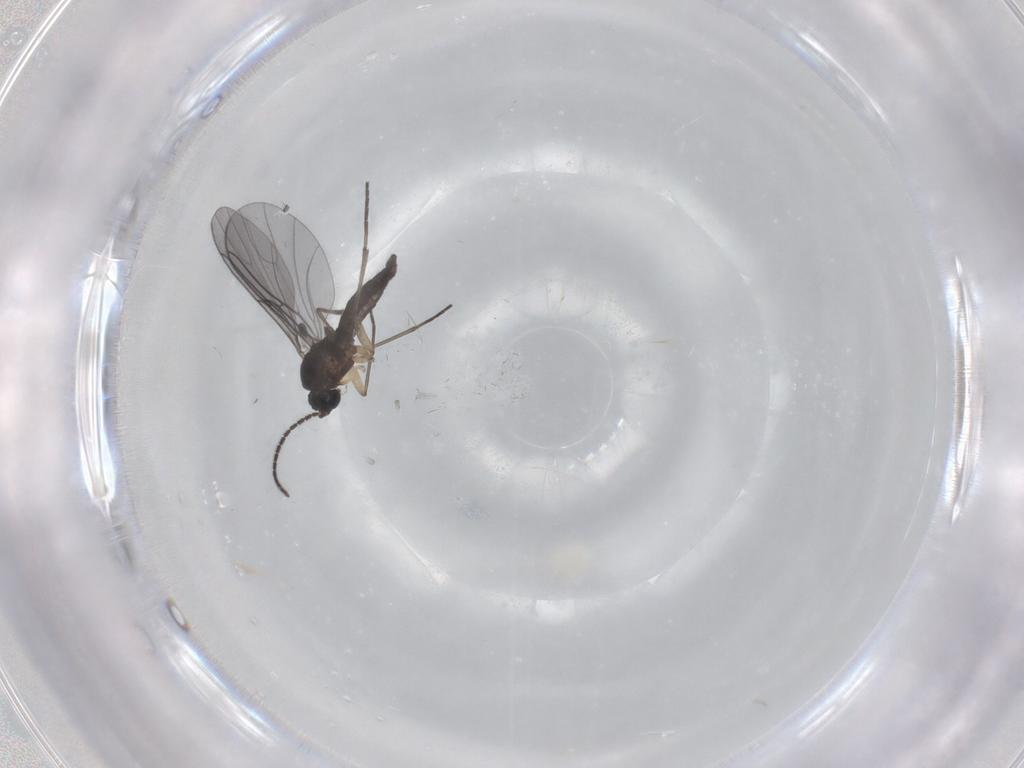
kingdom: Animalia
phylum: Arthropoda
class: Insecta
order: Diptera
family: Sciaridae
